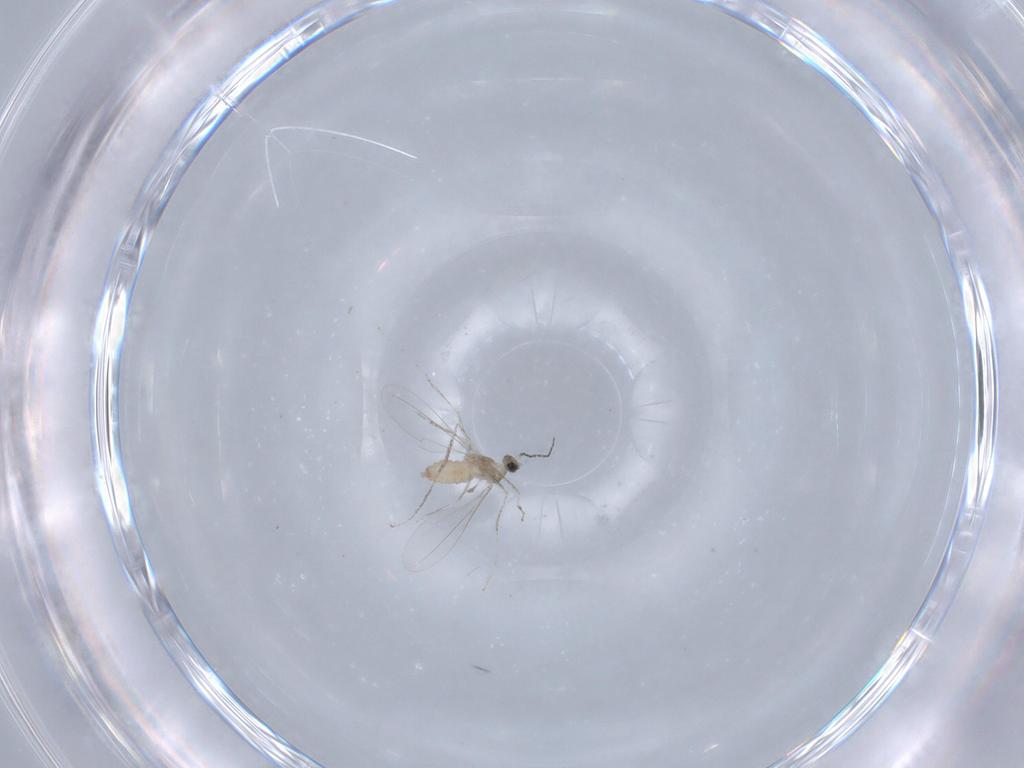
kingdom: Animalia
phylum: Arthropoda
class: Insecta
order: Diptera
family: Cecidomyiidae
